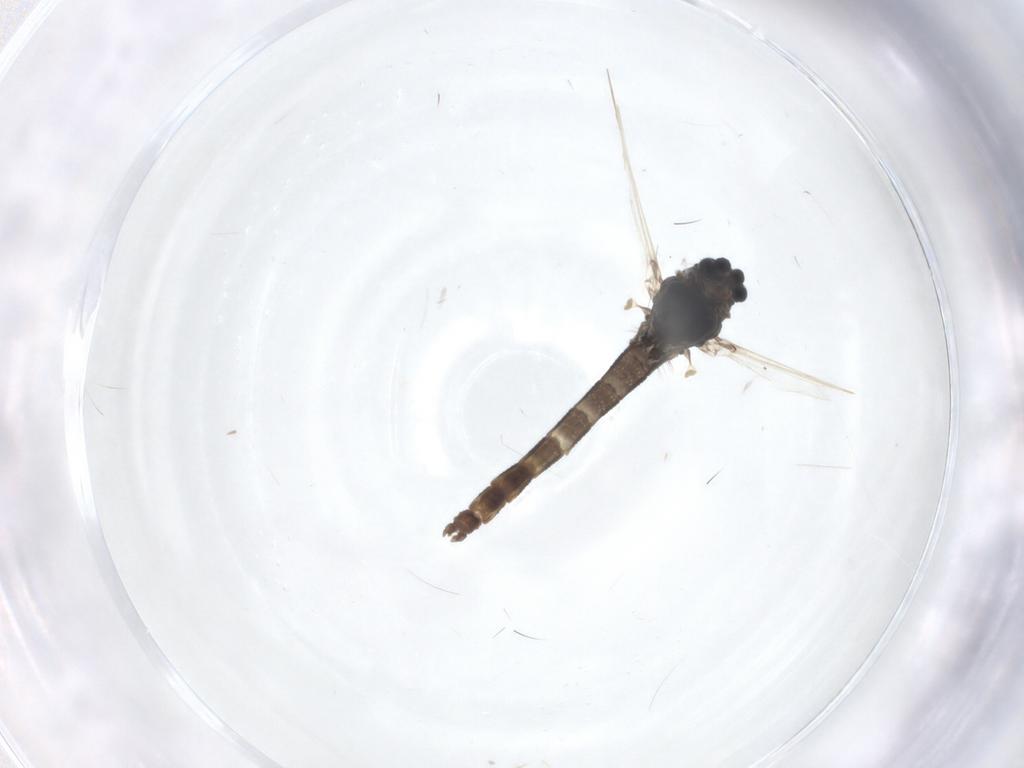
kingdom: Animalia
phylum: Arthropoda
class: Insecta
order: Diptera
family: Chironomidae
